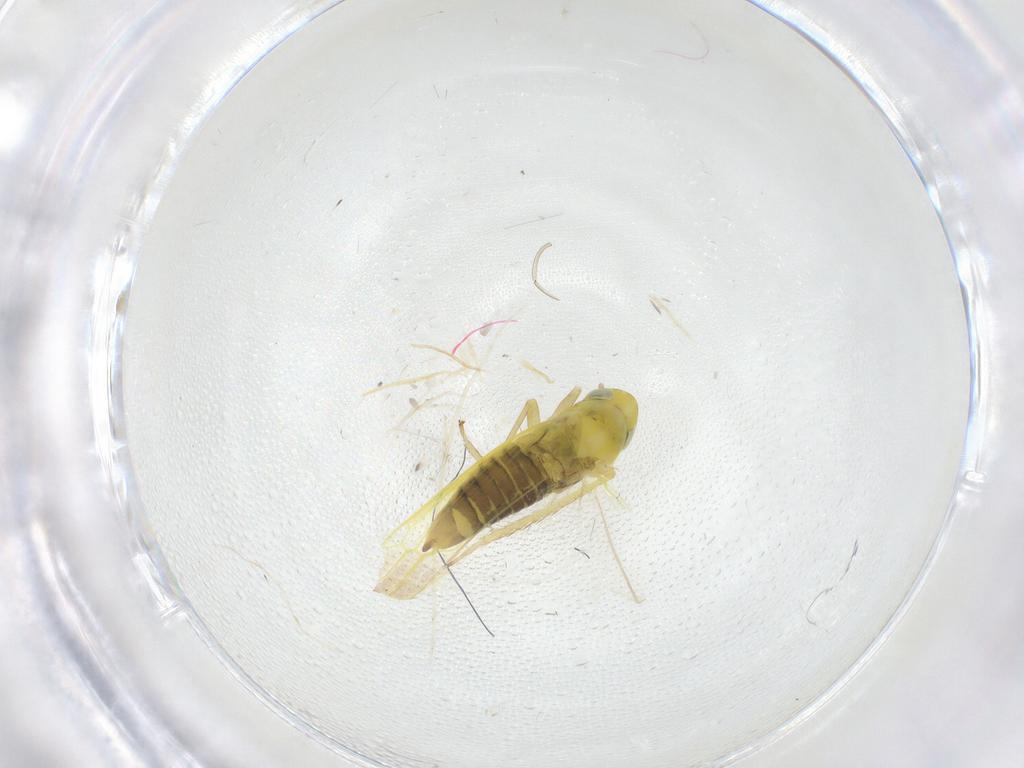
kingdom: Animalia
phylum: Arthropoda
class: Insecta
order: Hemiptera
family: Cicadellidae
